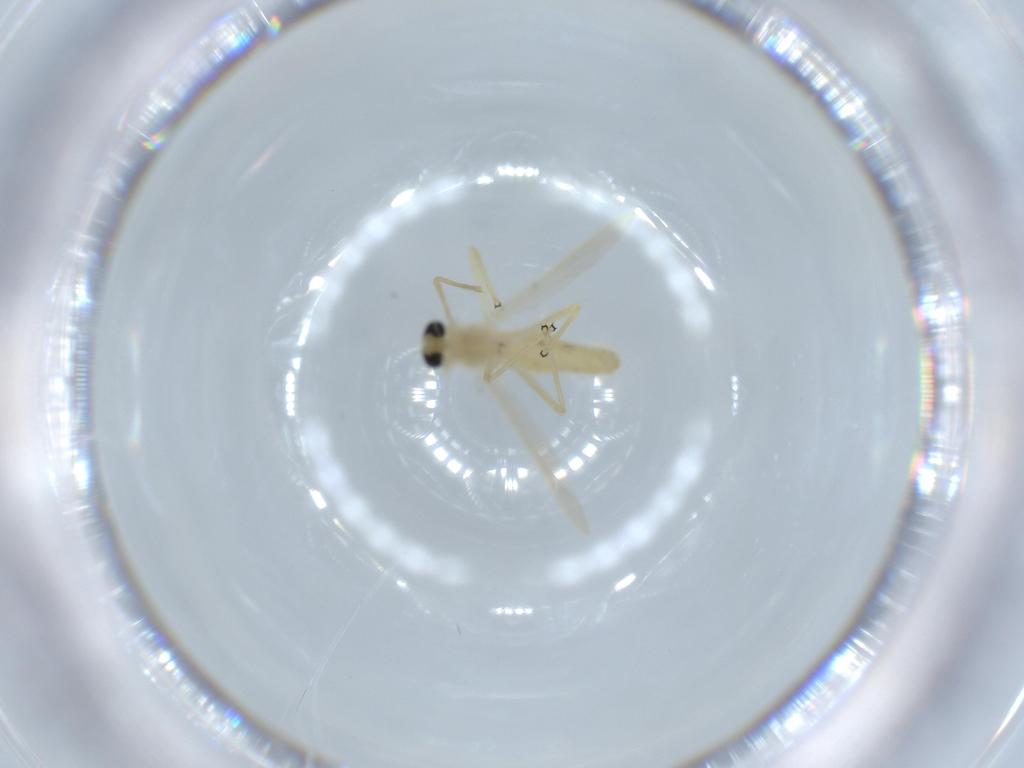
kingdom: Animalia
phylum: Arthropoda
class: Insecta
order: Diptera
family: Chironomidae
